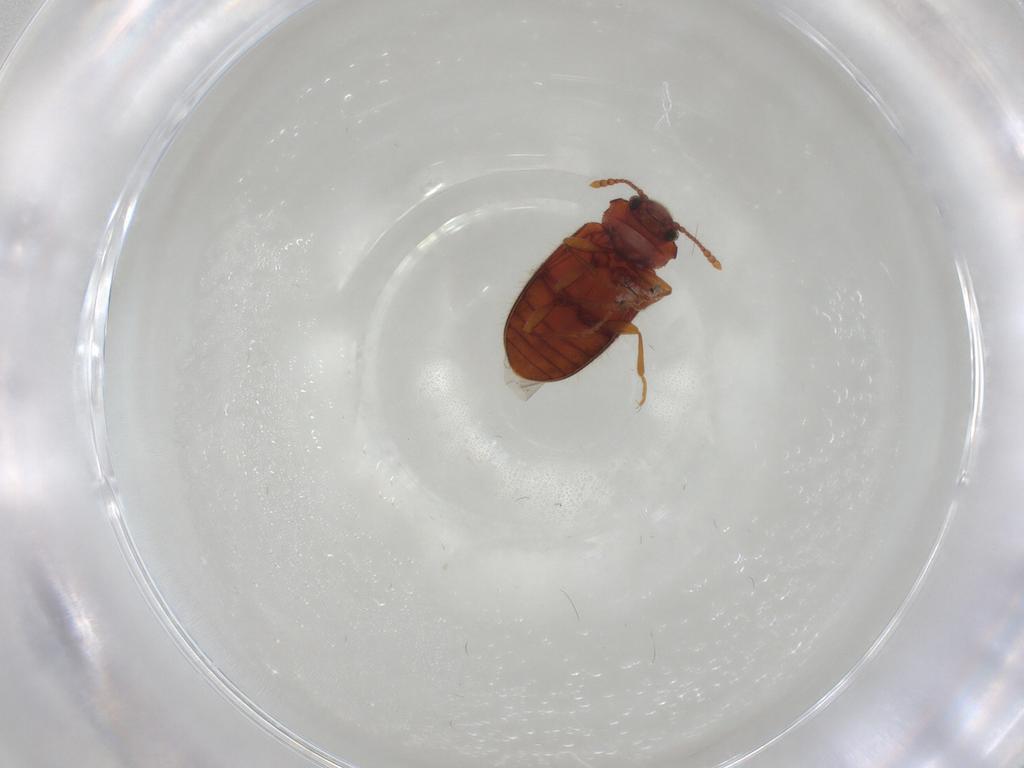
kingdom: Animalia
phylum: Arthropoda
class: Insecta
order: Coleoptera
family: Cryptophagidae
